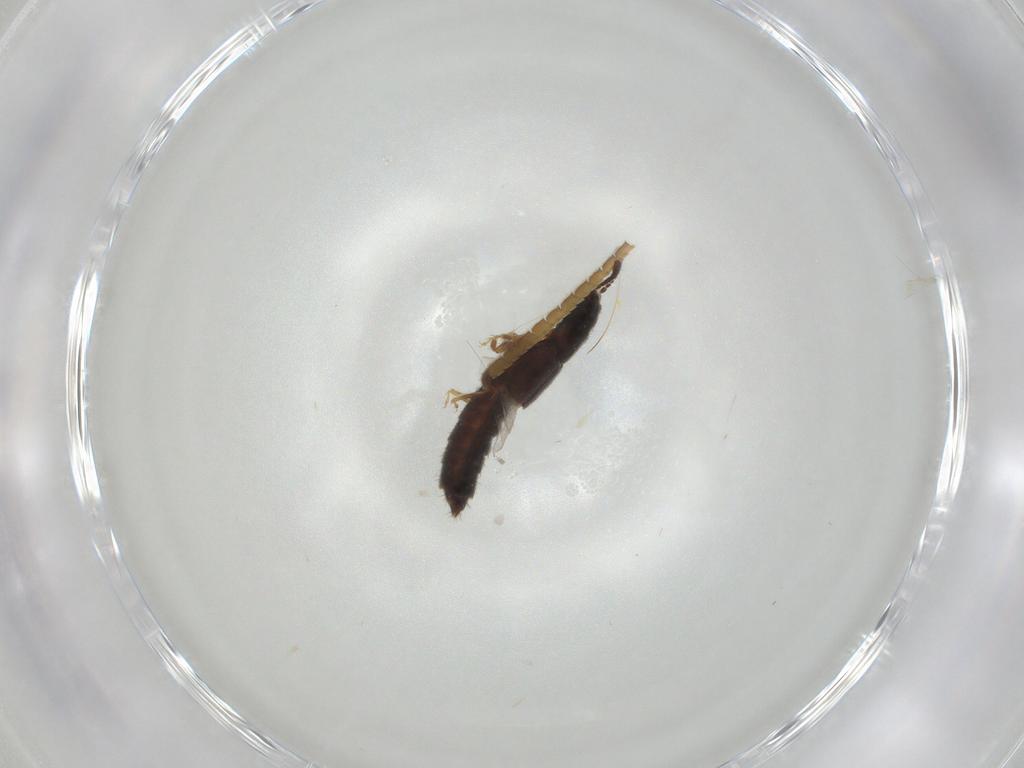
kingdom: Animalia
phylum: Arthropoda
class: Insecta
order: Coleoptera
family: Staphylinidae
